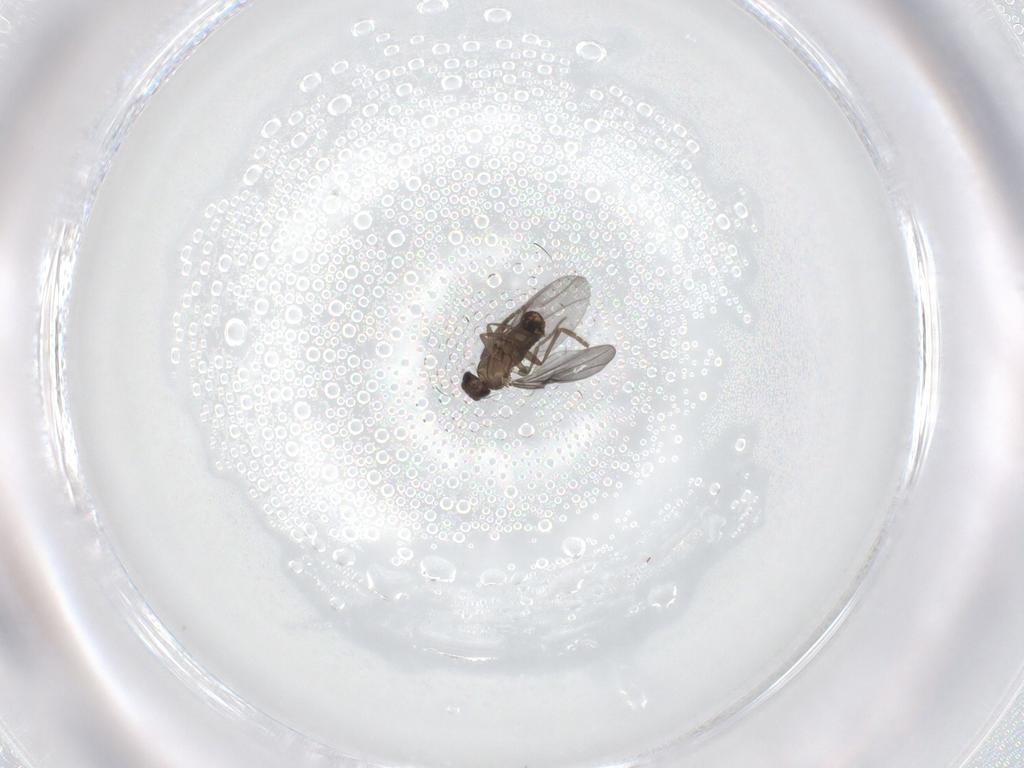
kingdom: Animalia
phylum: Arthropoda
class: Insecta
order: Diptera
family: Phoridae
